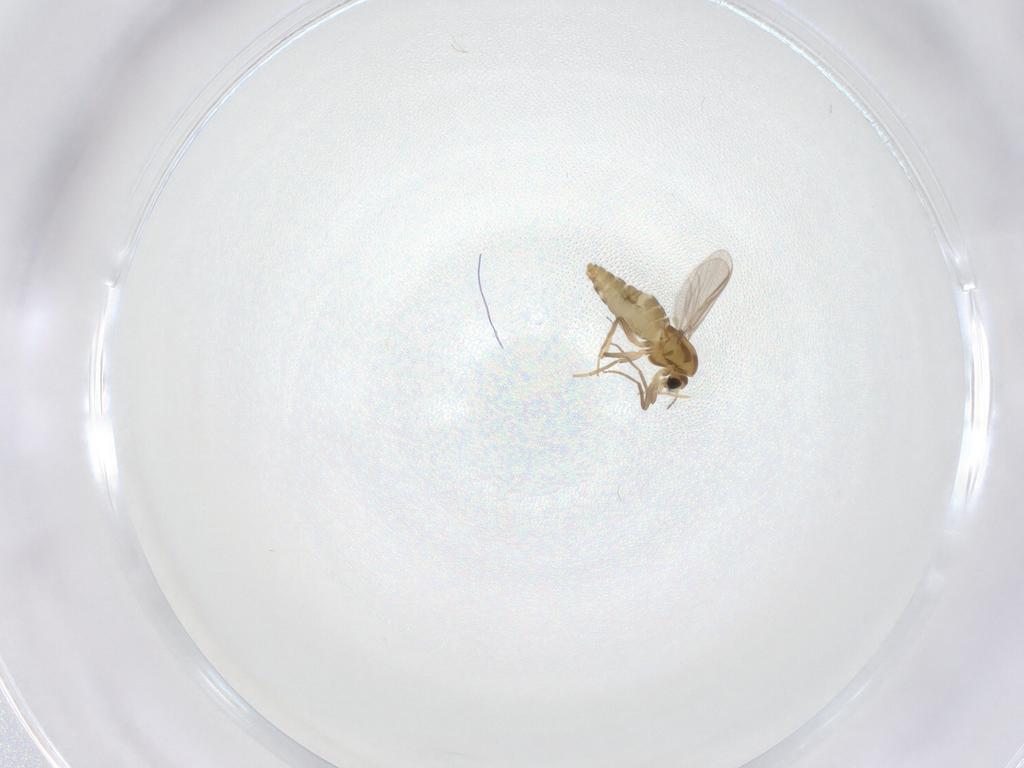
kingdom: Animalia
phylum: Arthropoda
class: Insecta
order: Diptera
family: Chironomidae
